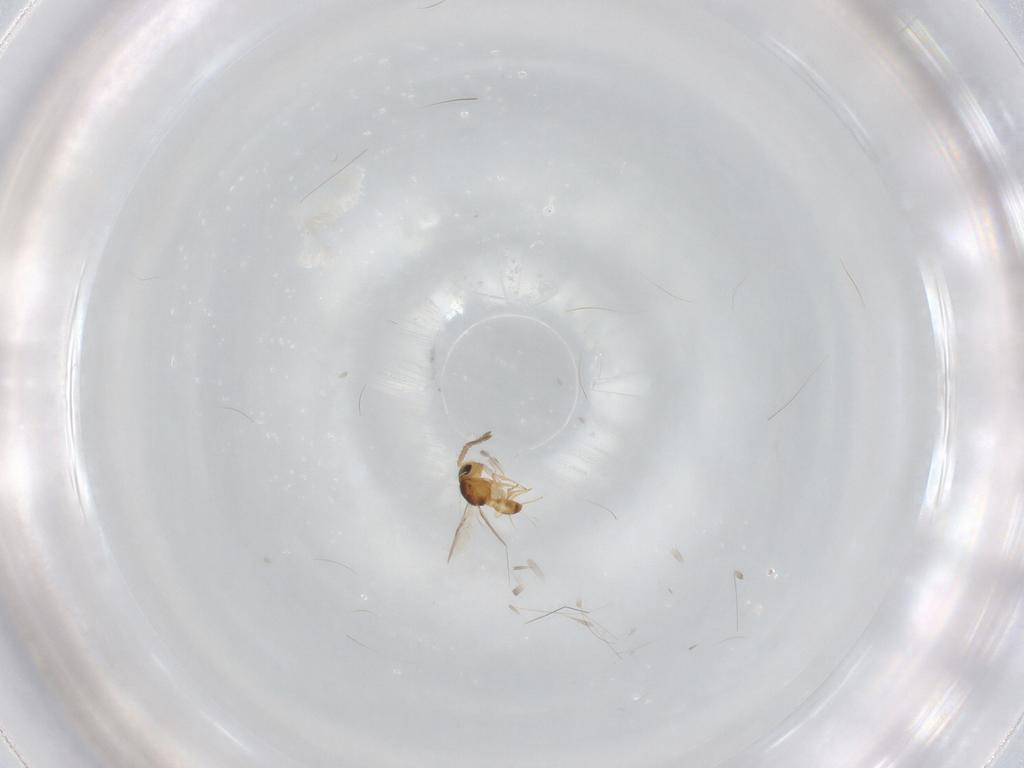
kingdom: Animalia
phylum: Arthropoda
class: Insecta
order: Hymenoptera
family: Scelionidae
